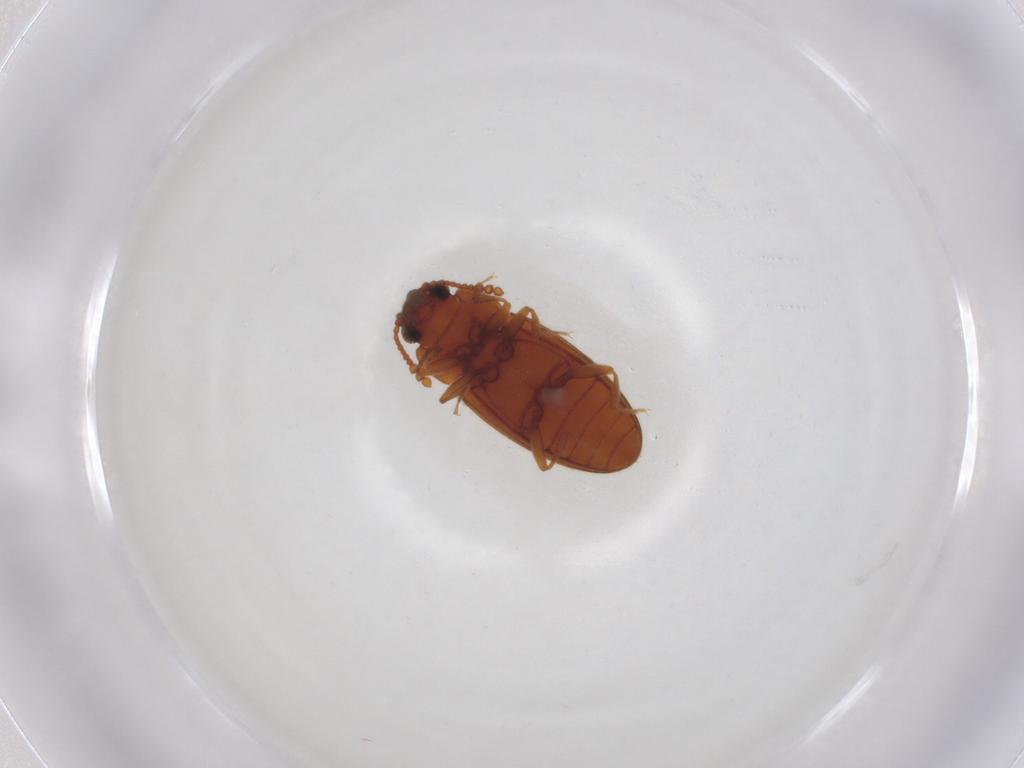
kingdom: Animalia
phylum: Arthropoda
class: Insecta
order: Coleoptera
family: Erotylidae
